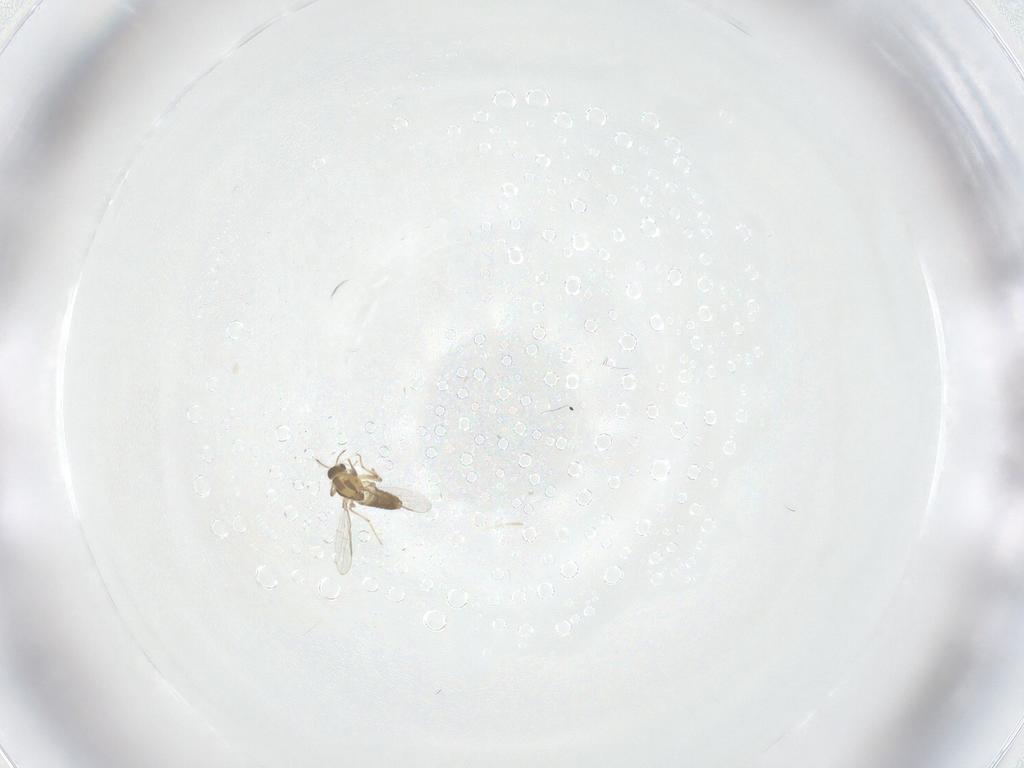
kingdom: Animalia
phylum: Arthropoda
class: Insecta
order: Diptera
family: Chironomidae
